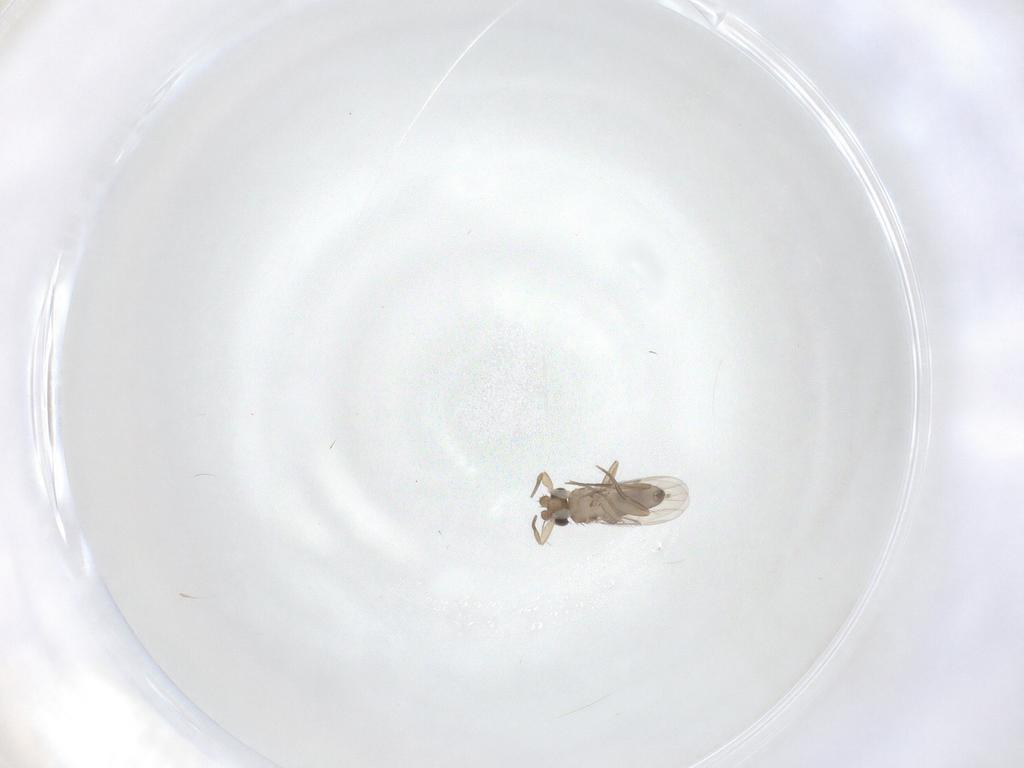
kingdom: Animalia
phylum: Arthropoda
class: Insecta
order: Diptera
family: Phoridae
